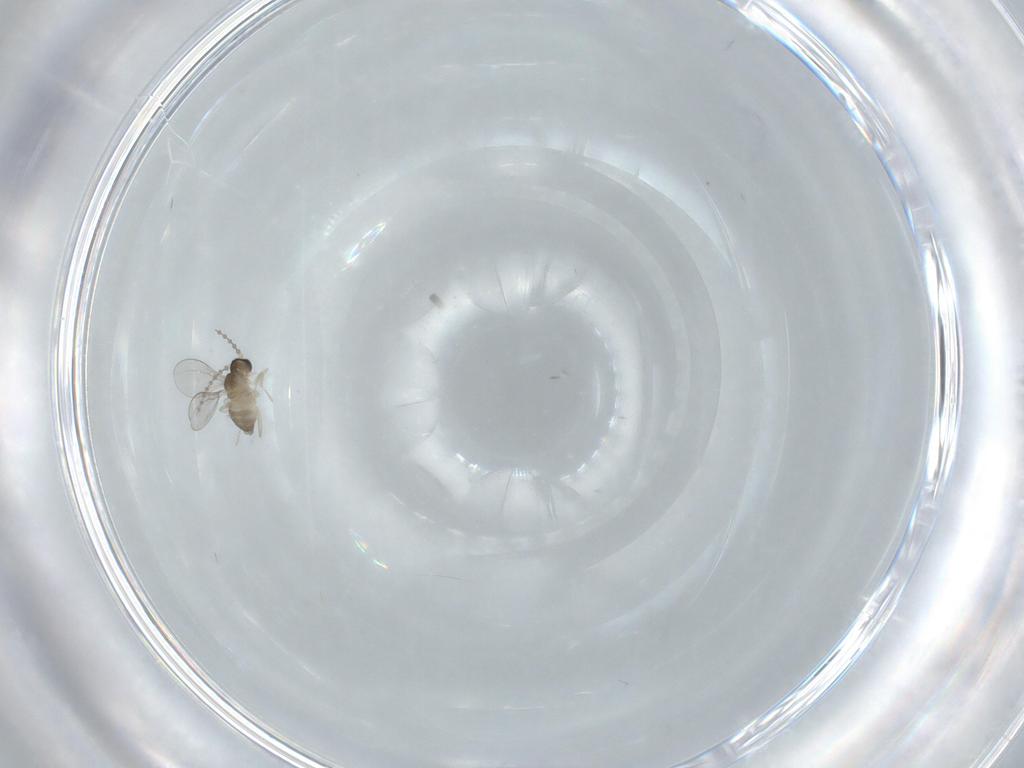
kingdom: Animalia
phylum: Arthropoda
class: Insecta
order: Diptera
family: Cecidomyiidae
